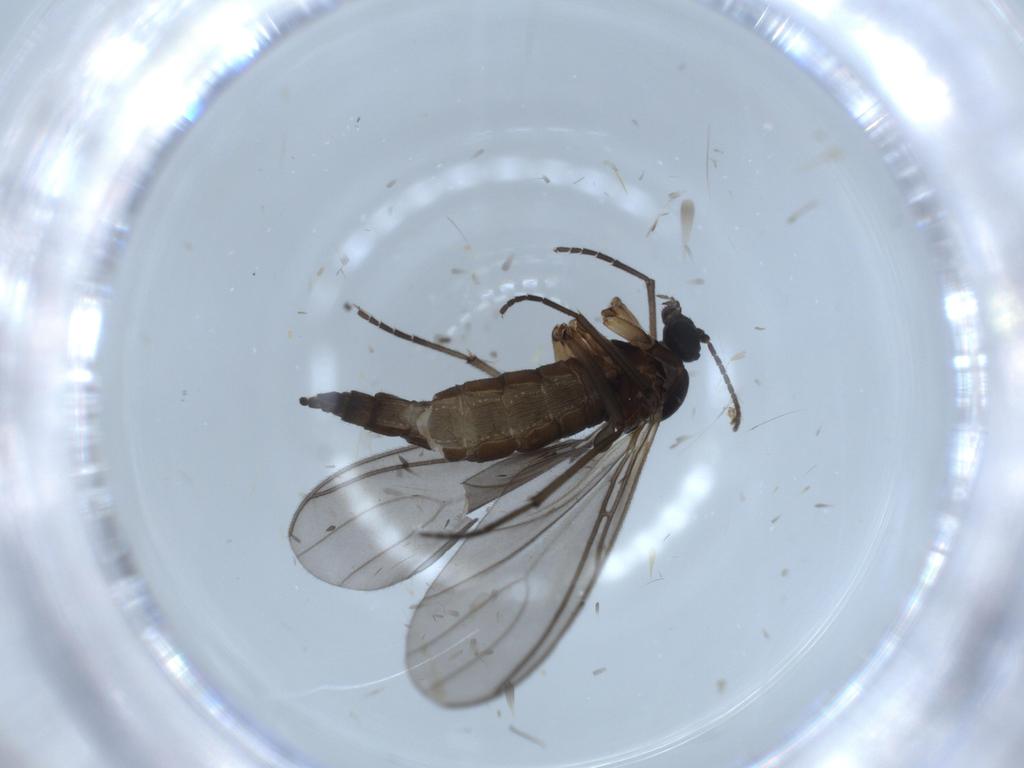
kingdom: Animalia
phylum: Arthropoda
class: Insecta
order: Diptera
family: Sciaridae
